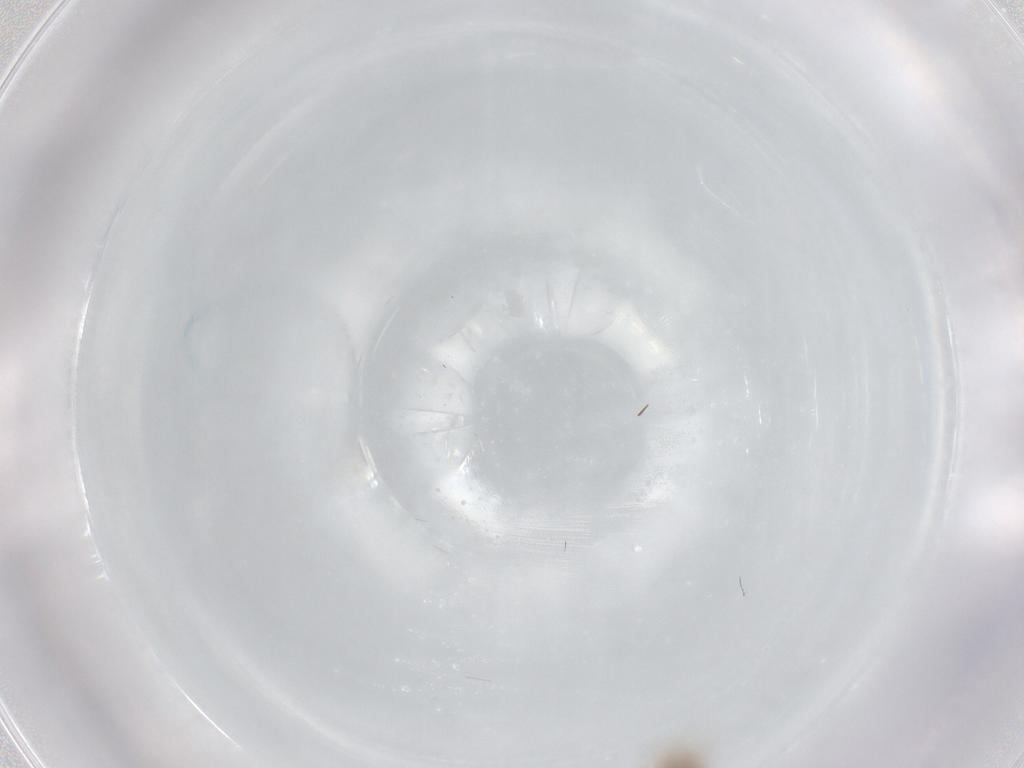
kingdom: Animalia
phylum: Arthropoda
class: Insecta
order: Diptera
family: Ceratopogonidae
